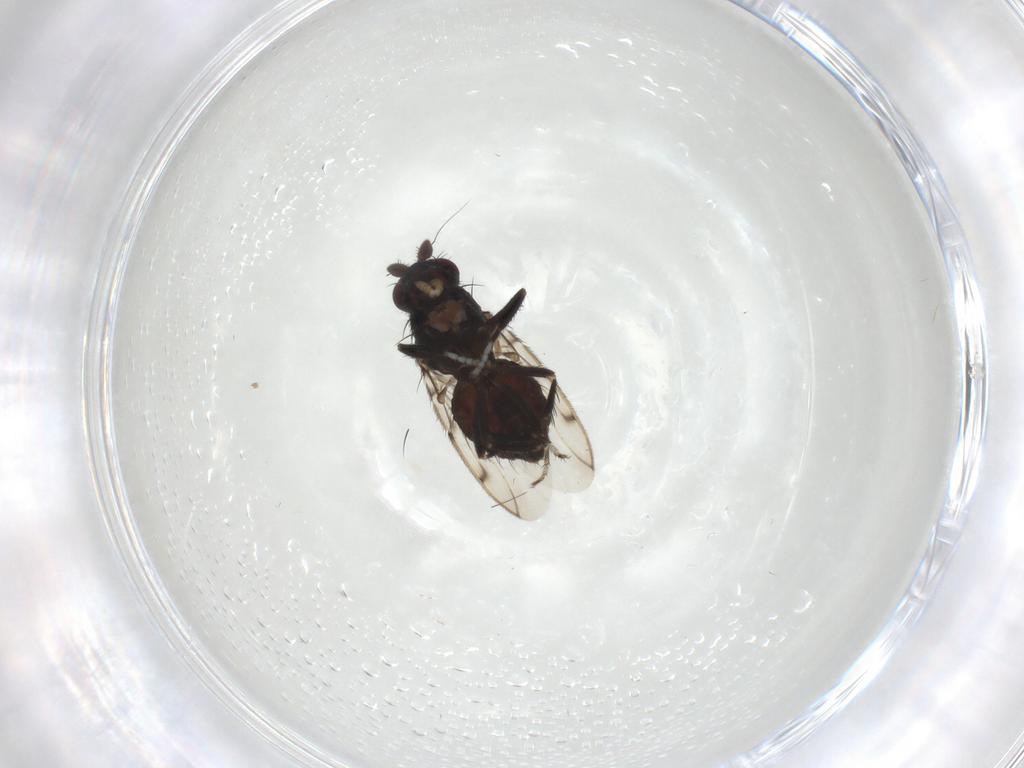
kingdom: Animalia
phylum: Arthropoda
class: Insecta
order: Diptera
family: Sphaeroceridae
